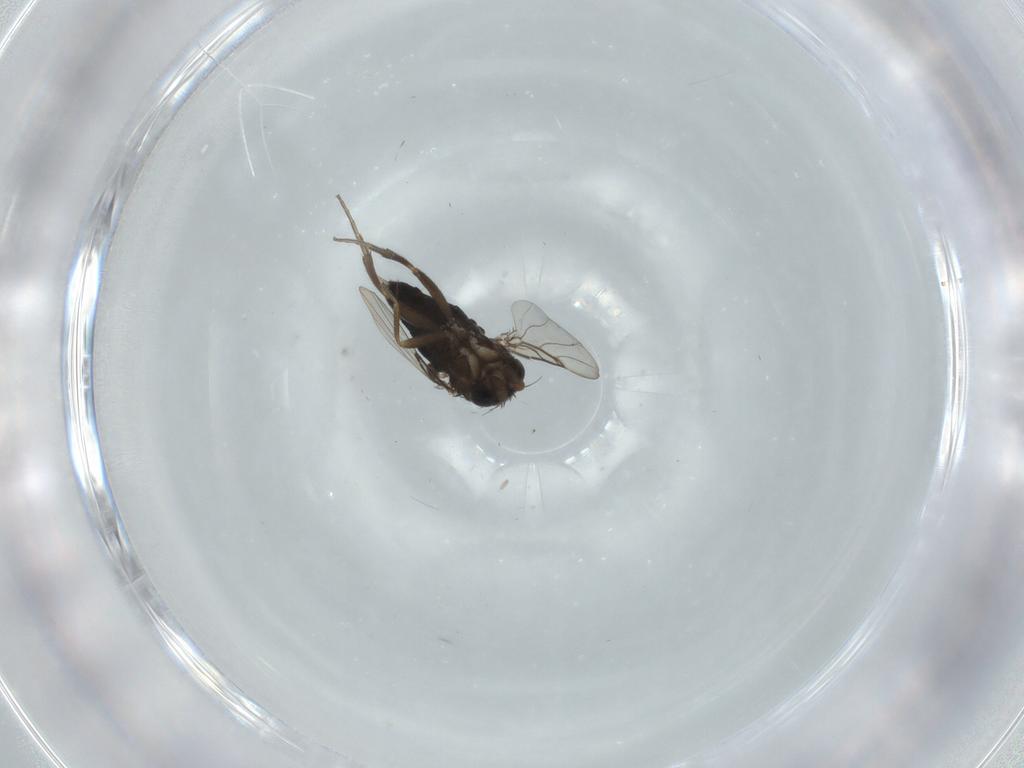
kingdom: Animalia
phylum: Arthropoda
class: Insecta
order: Diptera
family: Phoridae
